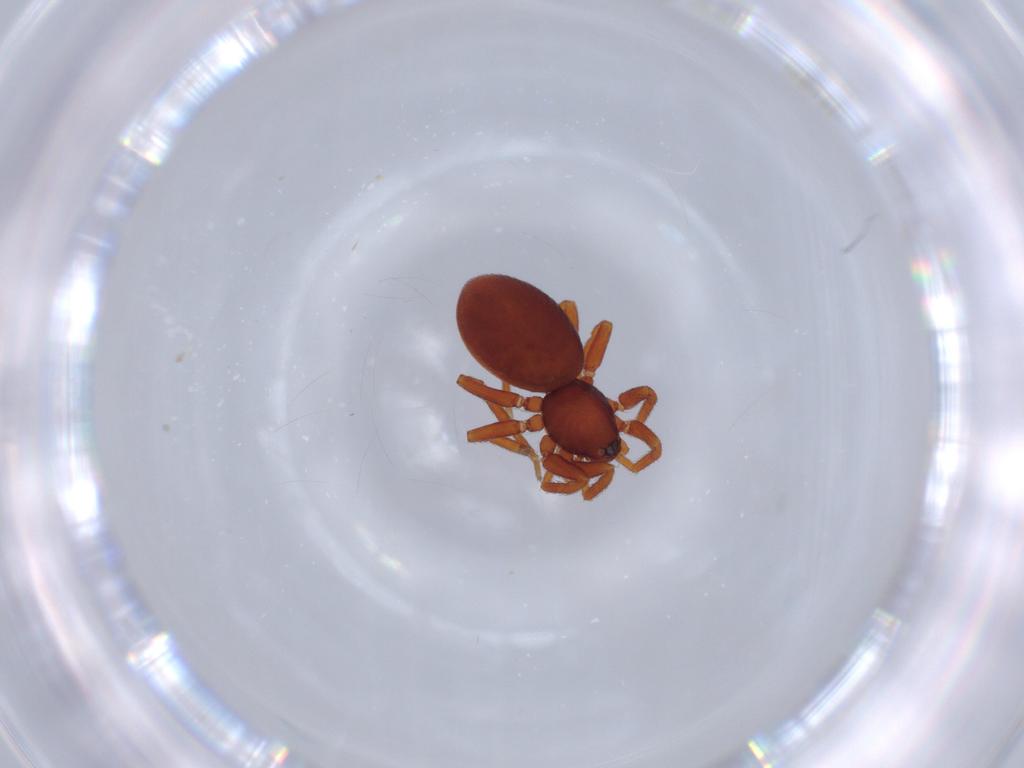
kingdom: Animalia
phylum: Arthropoda
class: Arachnida
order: Araneae
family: Oonopidae
